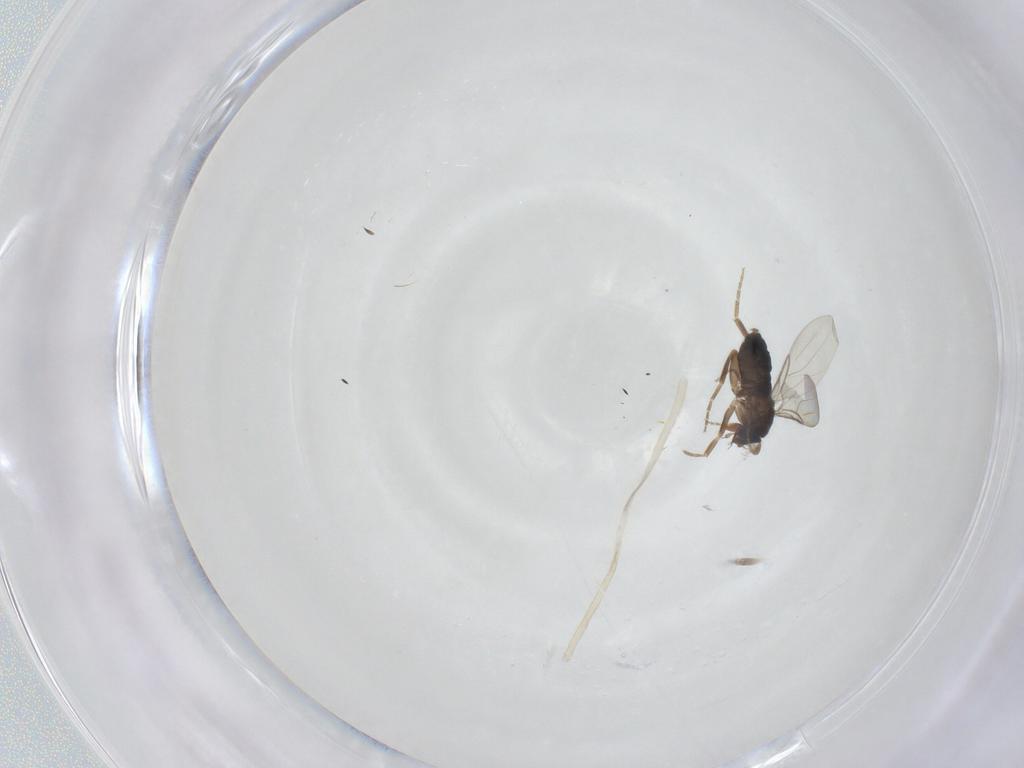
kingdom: Animalia
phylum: Arthropoda
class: Insecta
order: Diptera
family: Phoridae
